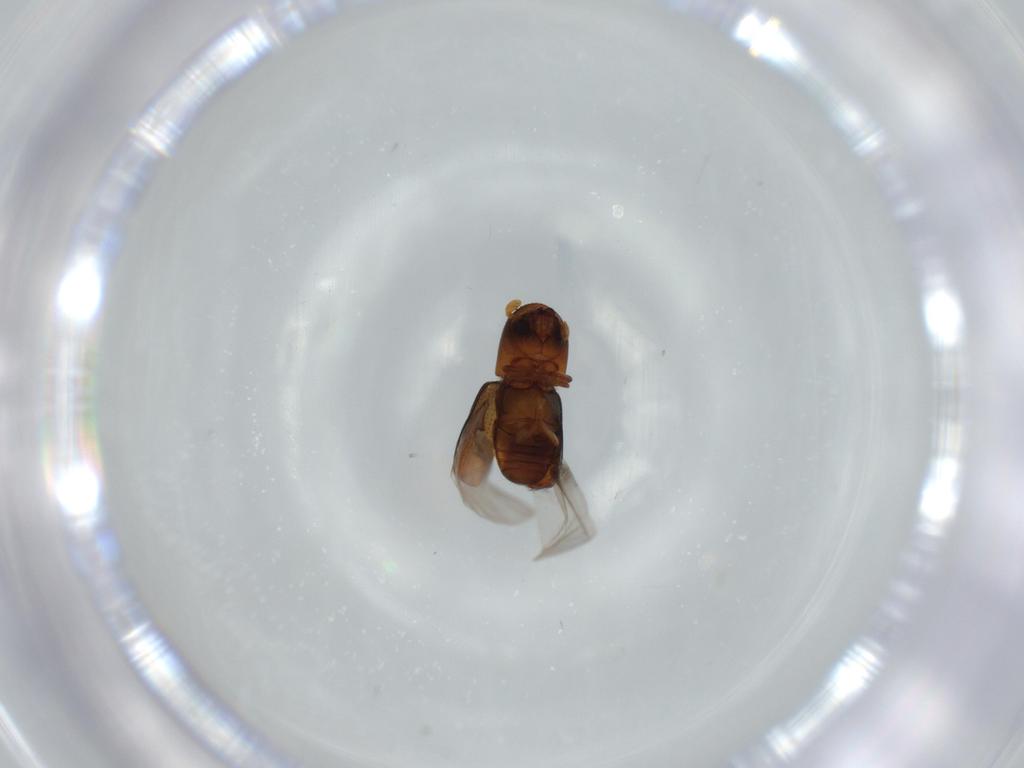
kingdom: Animalia
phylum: Arthropoda
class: Insecta
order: Coleoptera
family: Curculionidae
